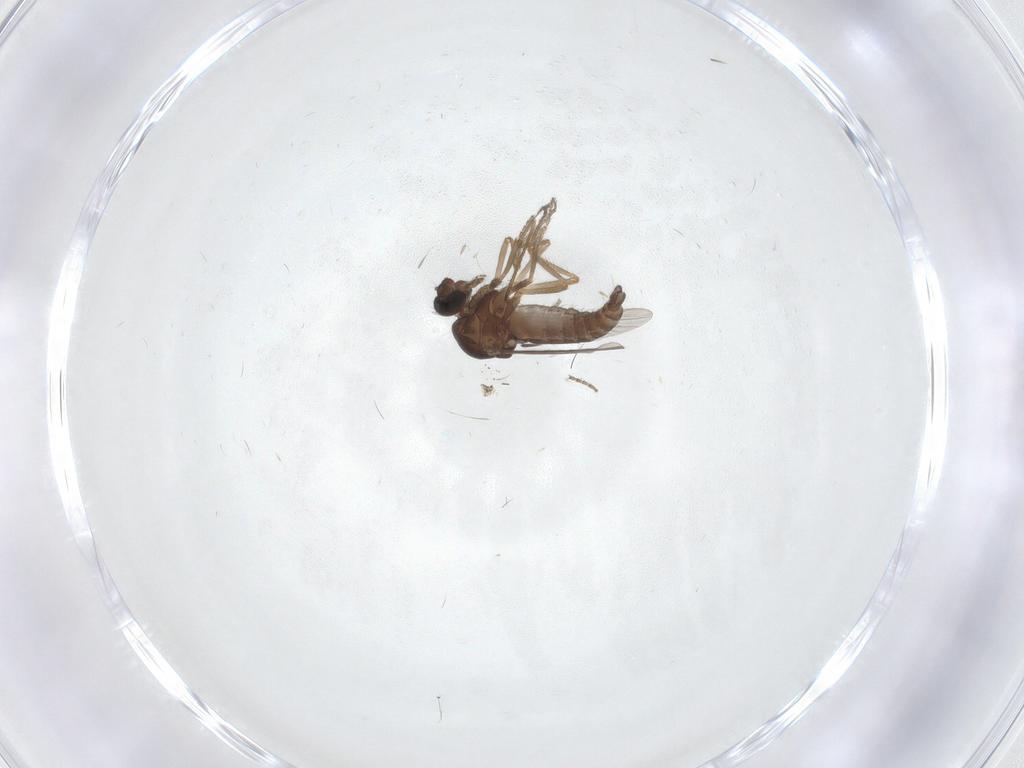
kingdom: Animalia
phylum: Arthropoda
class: Insecta
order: Diptera
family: Ceratopogonidae
